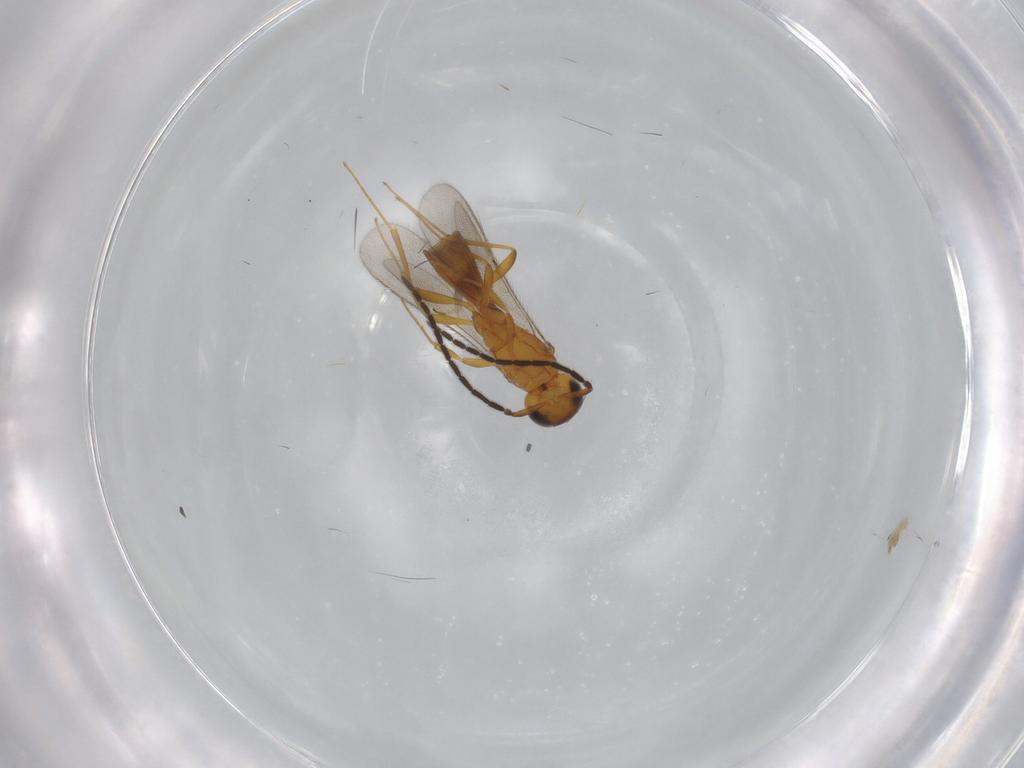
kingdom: Animalia
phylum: Arthropoda
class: Insecta
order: Hymenoptera
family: Scelionidae
